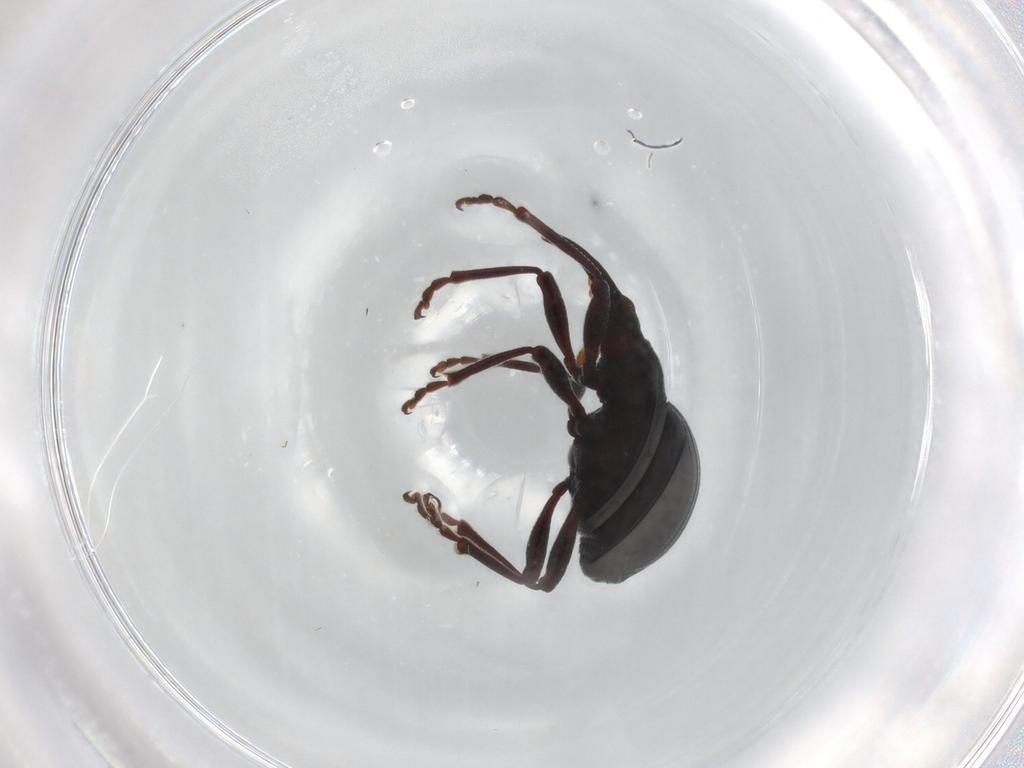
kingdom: Animalia
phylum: Arthropoda
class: Insecta
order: Coleoptera
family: Brentidae
